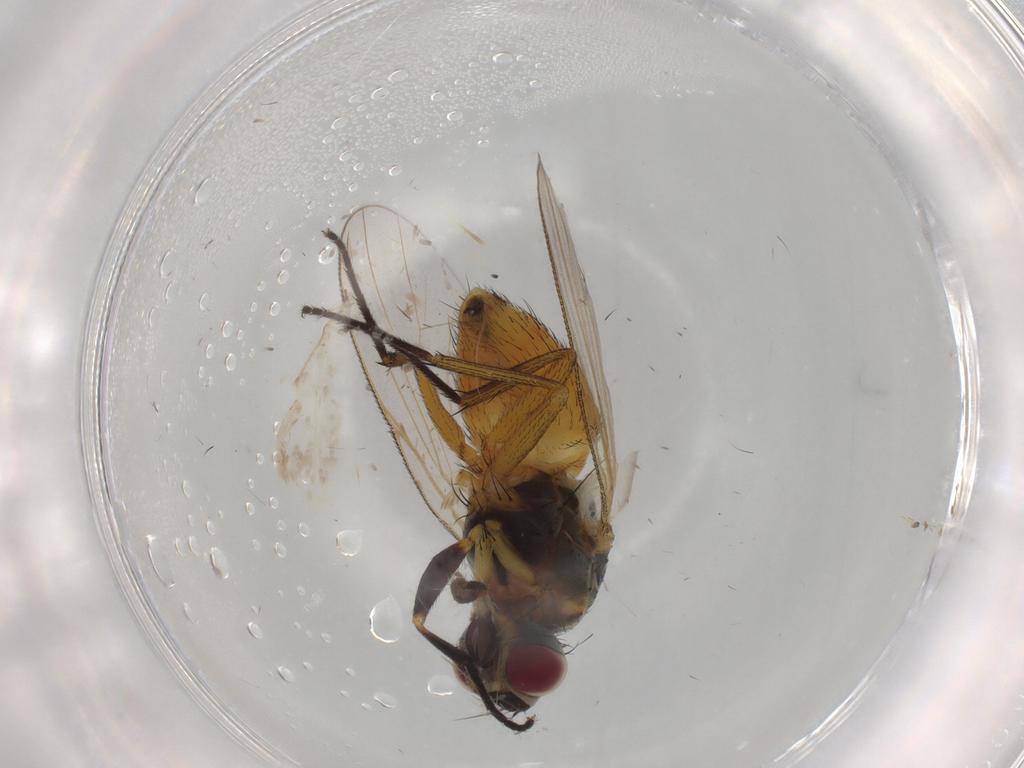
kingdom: Animalia
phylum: Arthropoda
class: Insecta
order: Diptera
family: Muscidae
